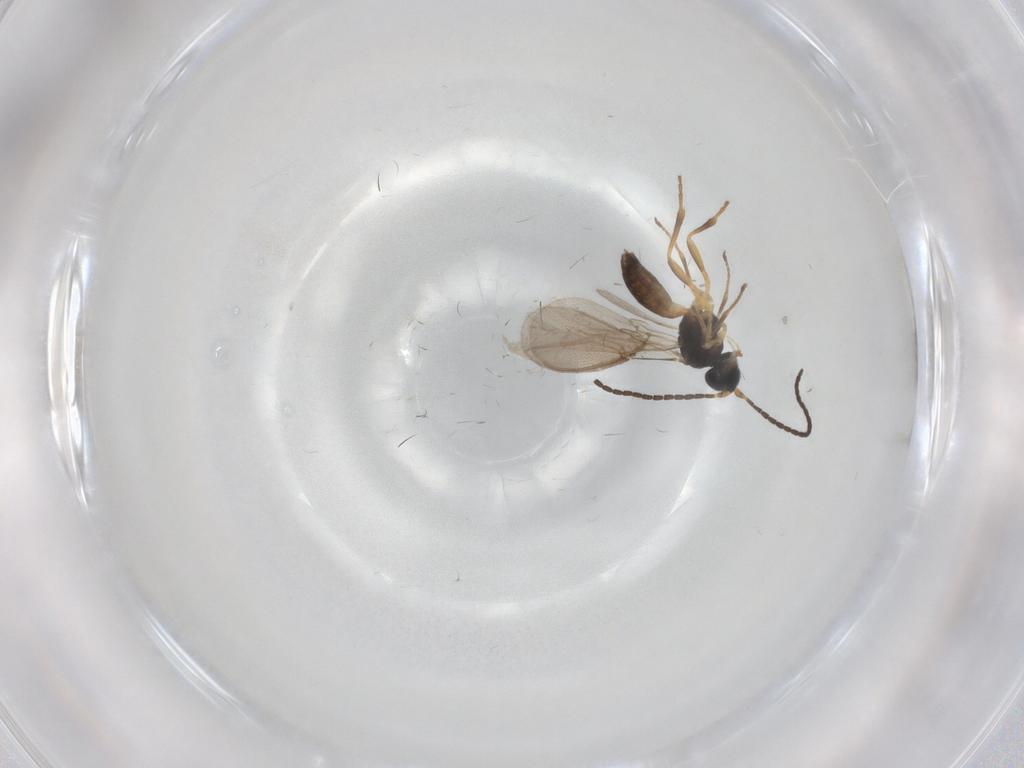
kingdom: Animalia
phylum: Arthropoda
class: Insecta
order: Hymenoptera
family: Braconidae
